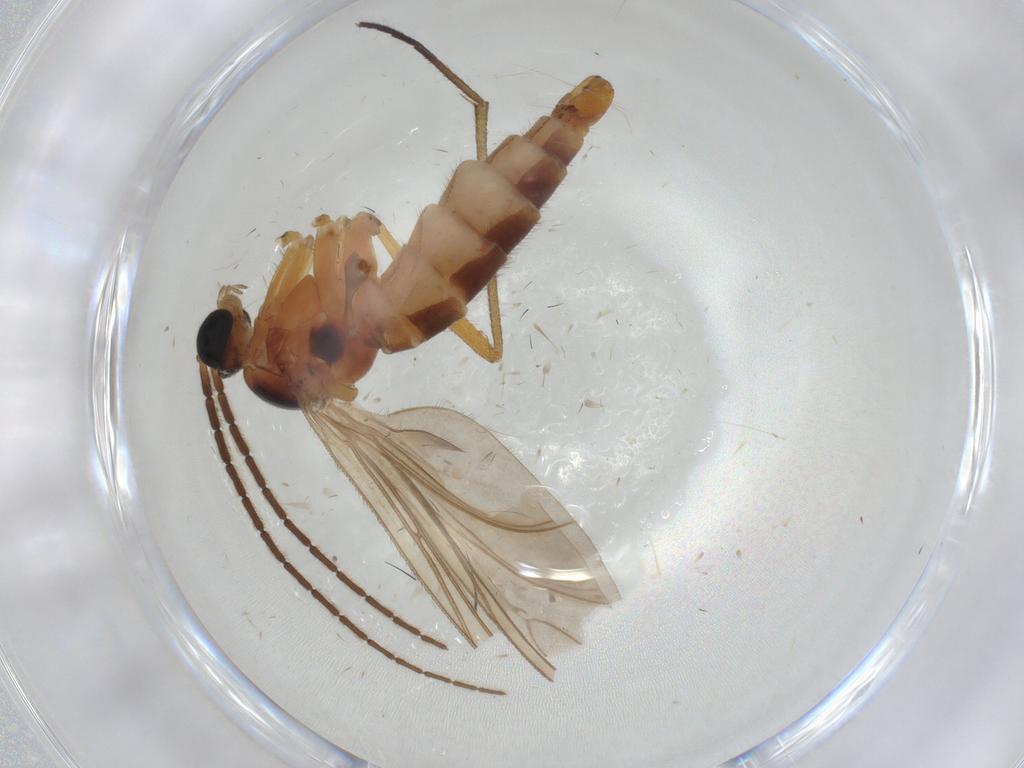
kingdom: Animalia
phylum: Arthropoda
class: Insecta
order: Diptera
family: Sciaridae
